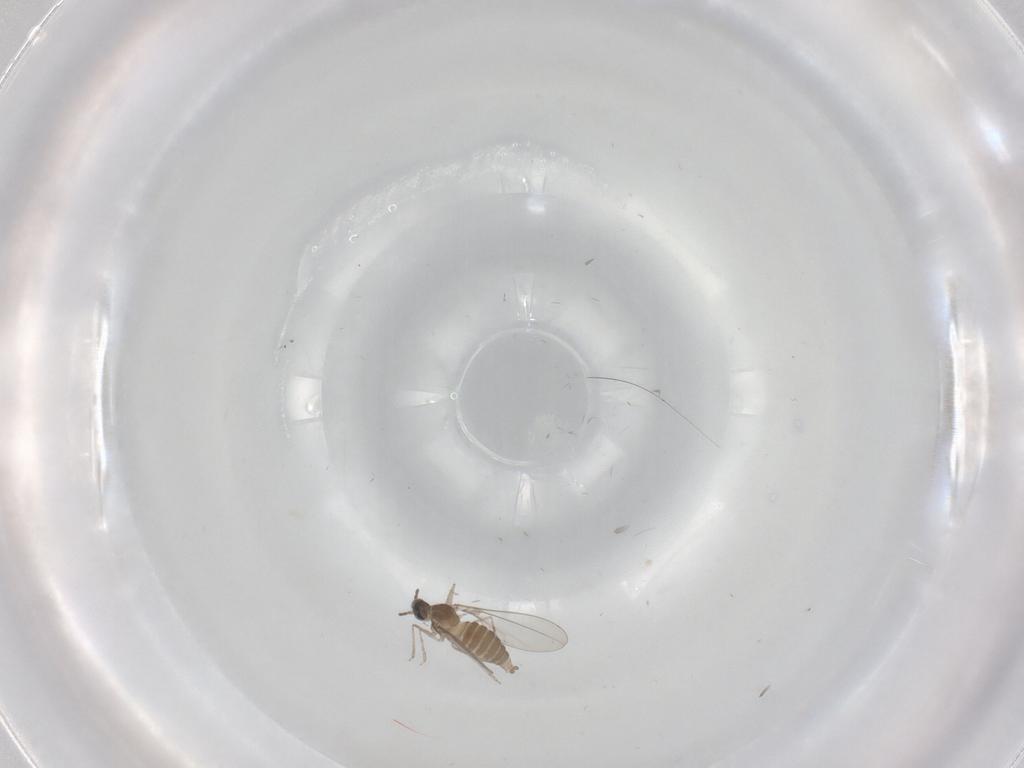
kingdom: Animalia
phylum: Arthropoda
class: Insecta
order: Diptera
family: Cecidomyiidae
